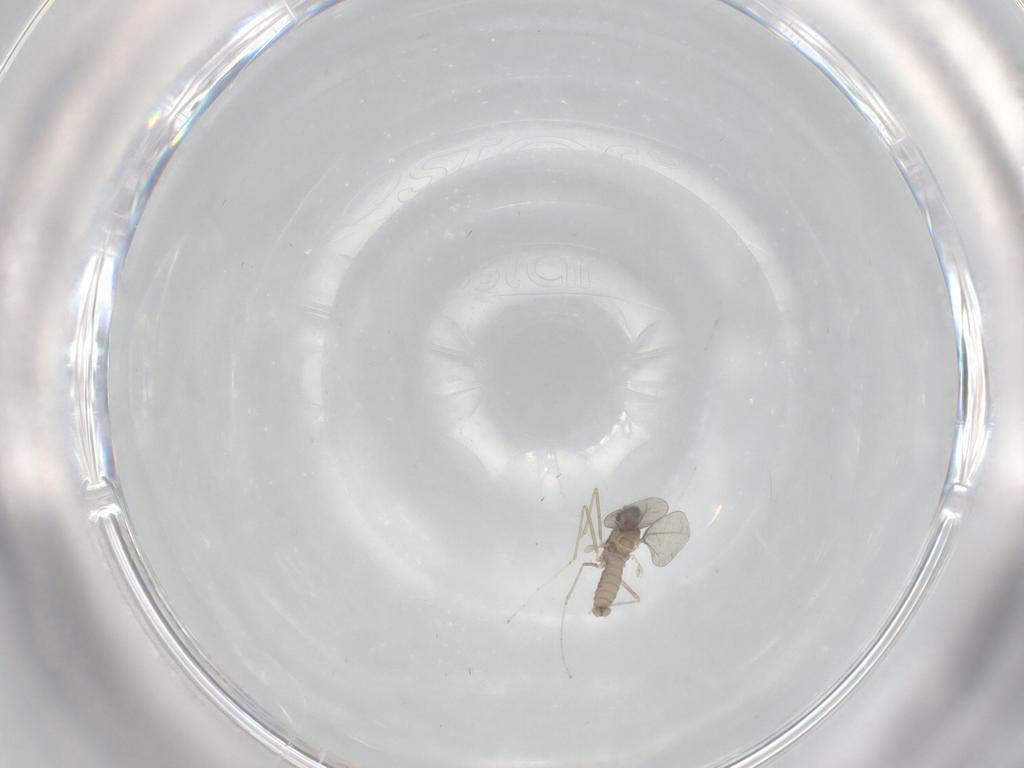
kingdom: Animalia
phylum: Arthropoda
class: Insecta
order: Diptera
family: Cecidomyiidae
